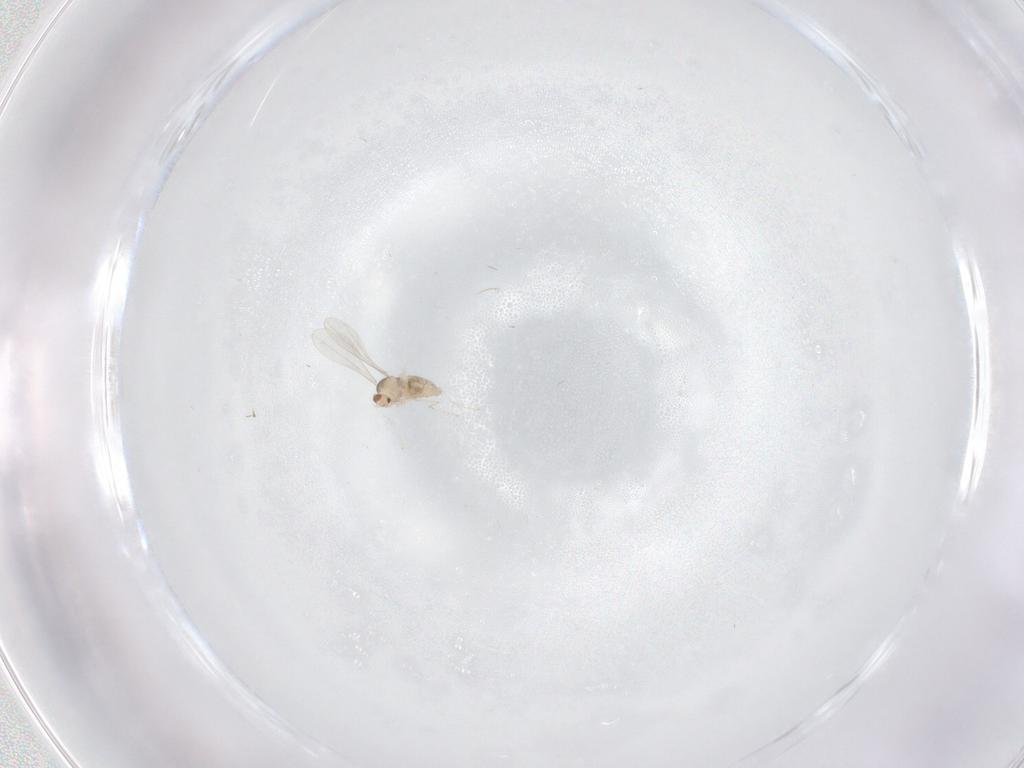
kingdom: Animalia
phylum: Arthropoda
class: Insecta
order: Diptera
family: Cecidomyiidae
